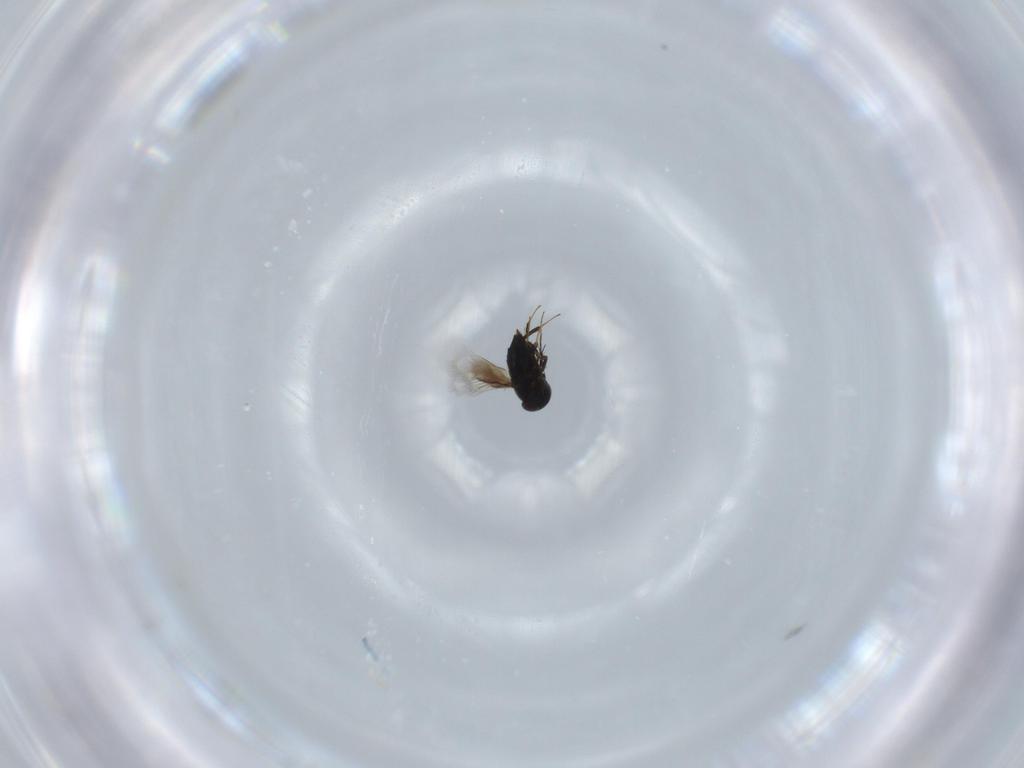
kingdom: Animalia
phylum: Arthropoda
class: Insecta
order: Hymenoptera
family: Signiphoridae
